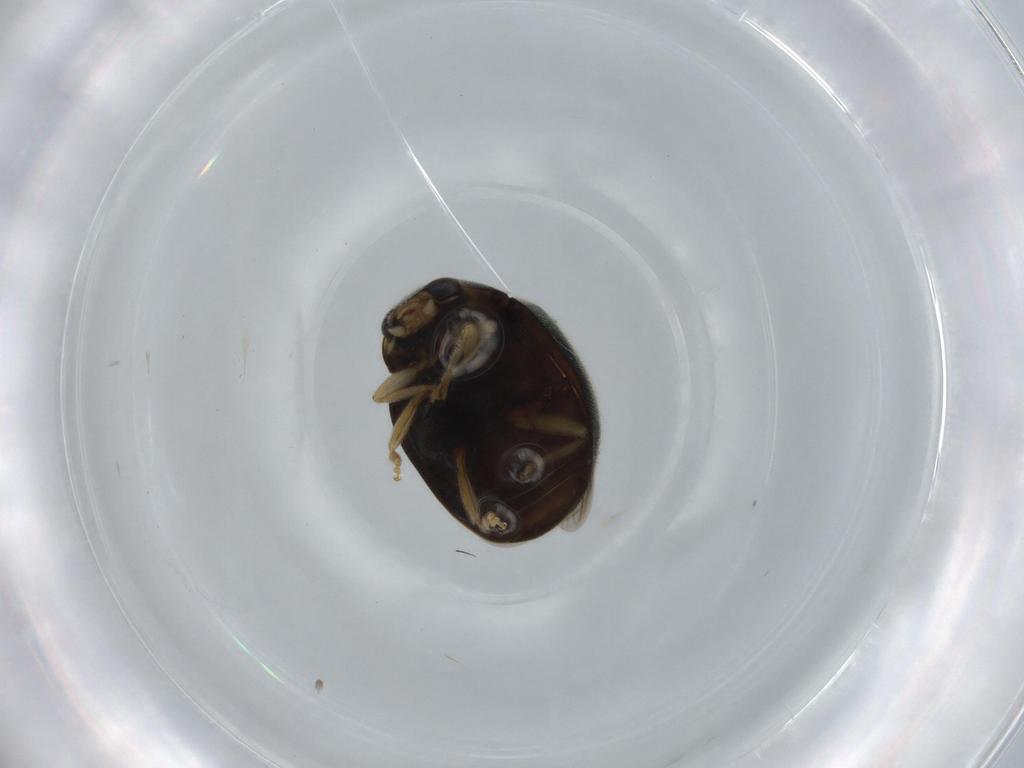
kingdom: Animalia
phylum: Arthropoda
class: Insecta
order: Coleoptera
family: Coccinellidae
